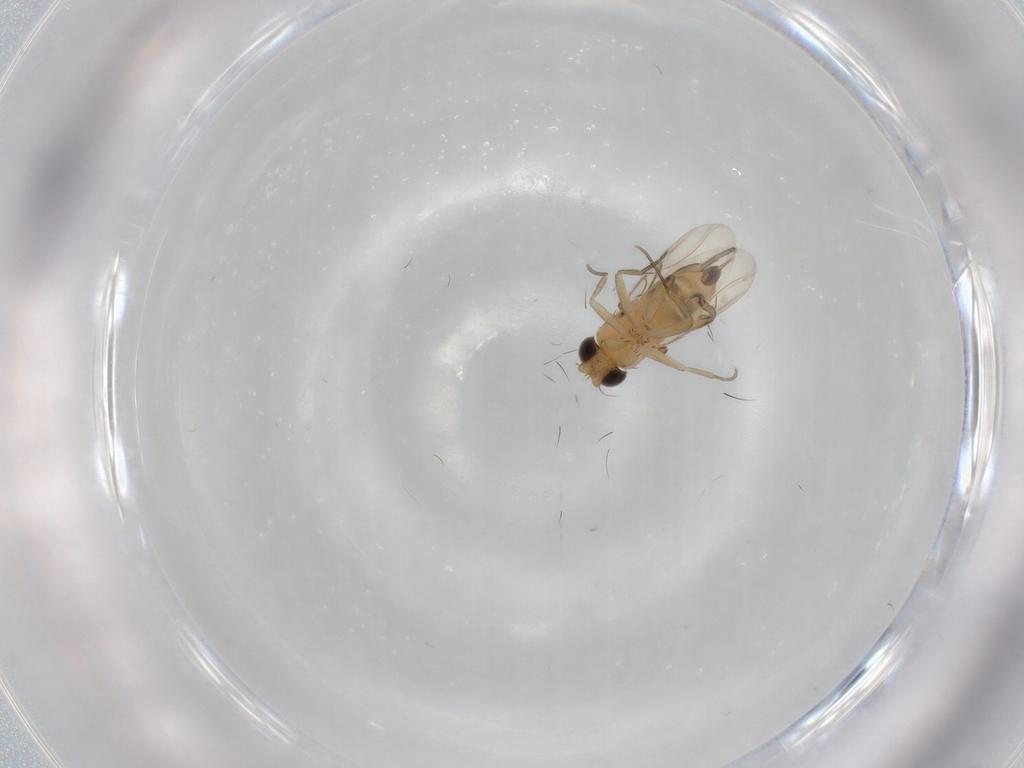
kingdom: Animalia
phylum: Arthropoda
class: Insecta
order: Diptera
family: Phoridae
